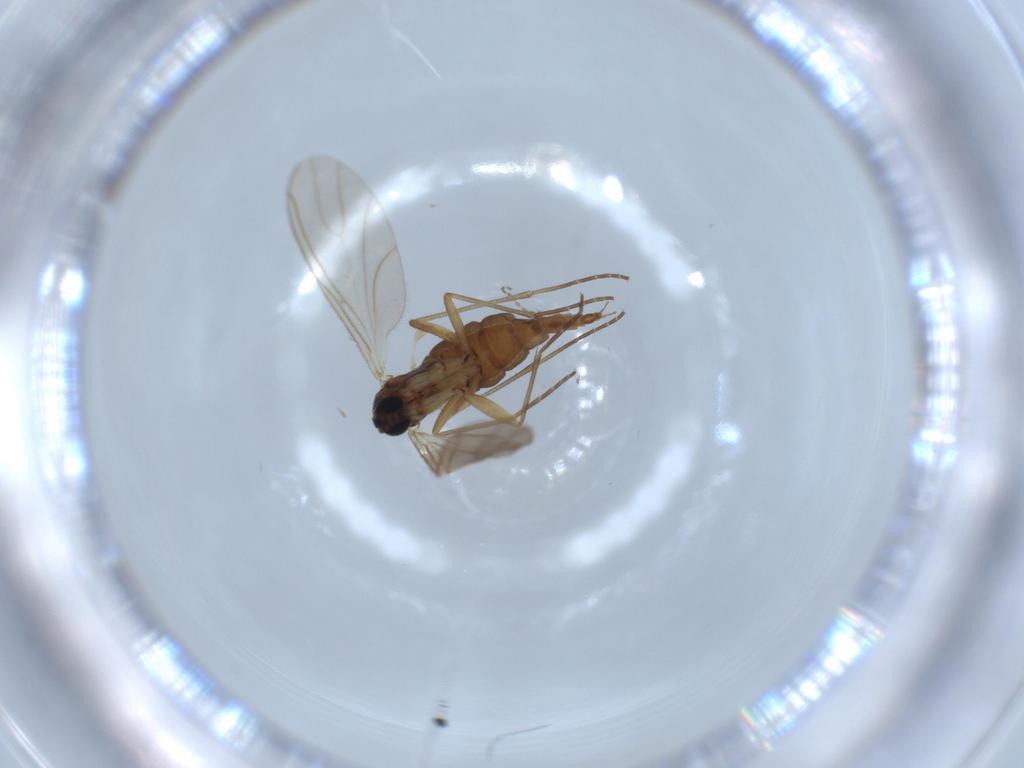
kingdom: Animalia
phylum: Arthropoda
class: Insecta
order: Diptera
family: Sciaridae
